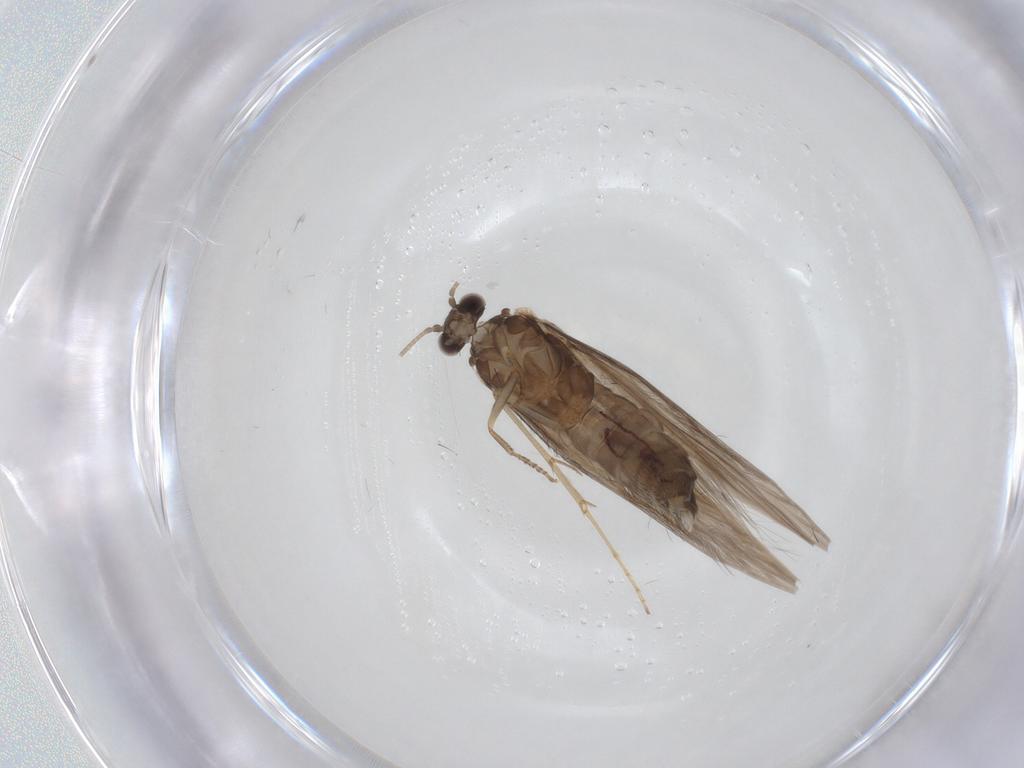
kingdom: Animalia
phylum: Arthropoda
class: Insecta
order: Trichoptera
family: Hydroptilidae
